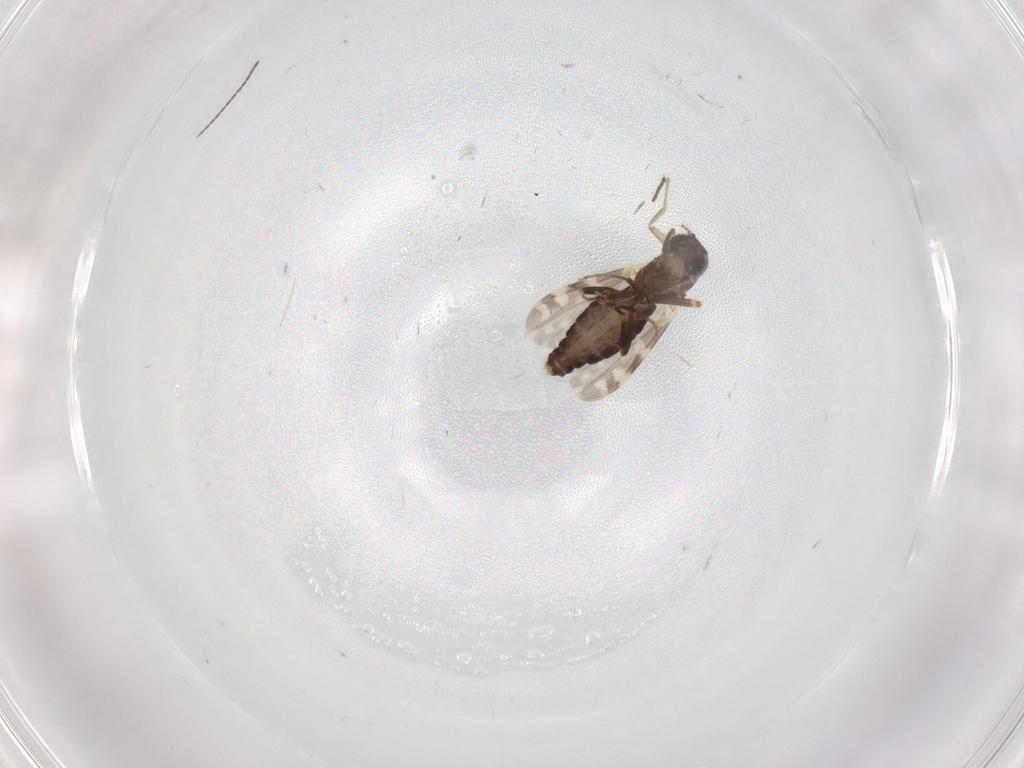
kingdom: Animalia
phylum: Arthropoda
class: Insecta
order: Diptera
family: Ceratopogonidae
